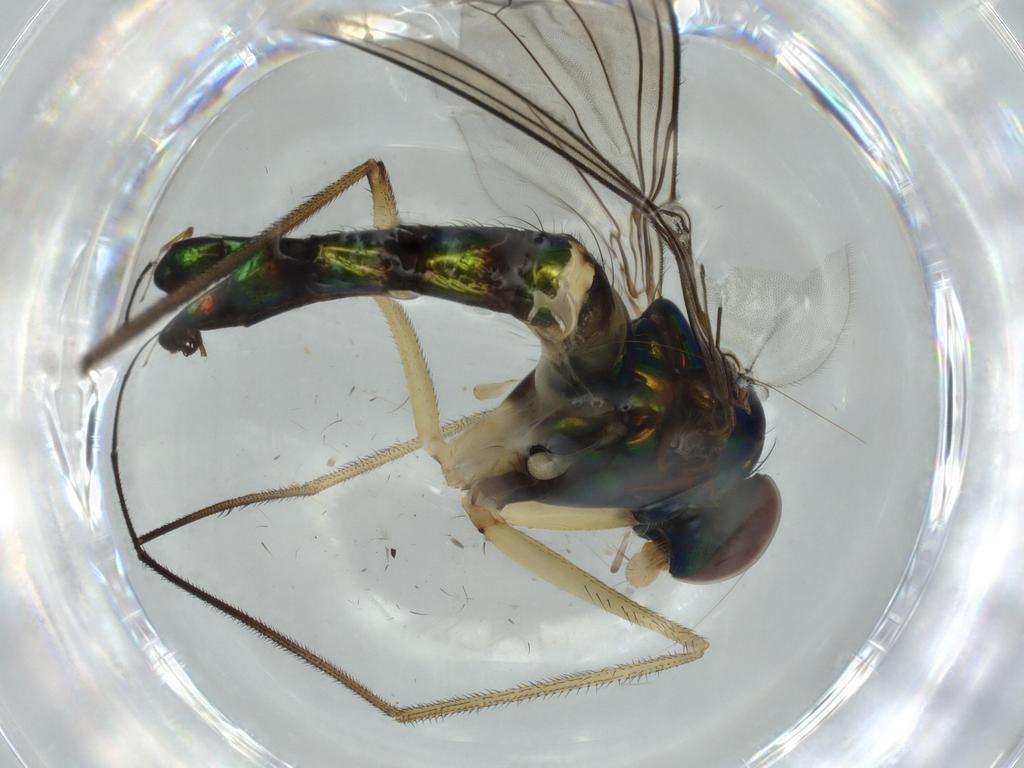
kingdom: Animalia
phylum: Arthropoda
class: Insecta
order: Diptera
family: Dolichopodidae
